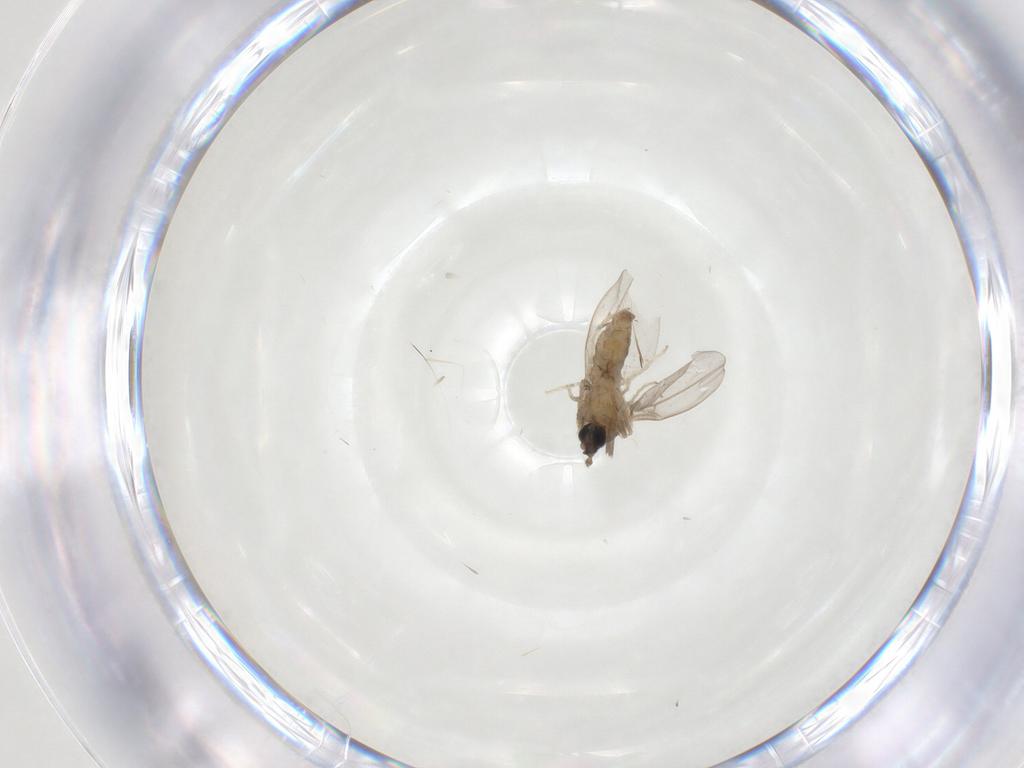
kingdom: Animalia
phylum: Arthropoda
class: Insecta
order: Diptera
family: Cecidomyiidae
